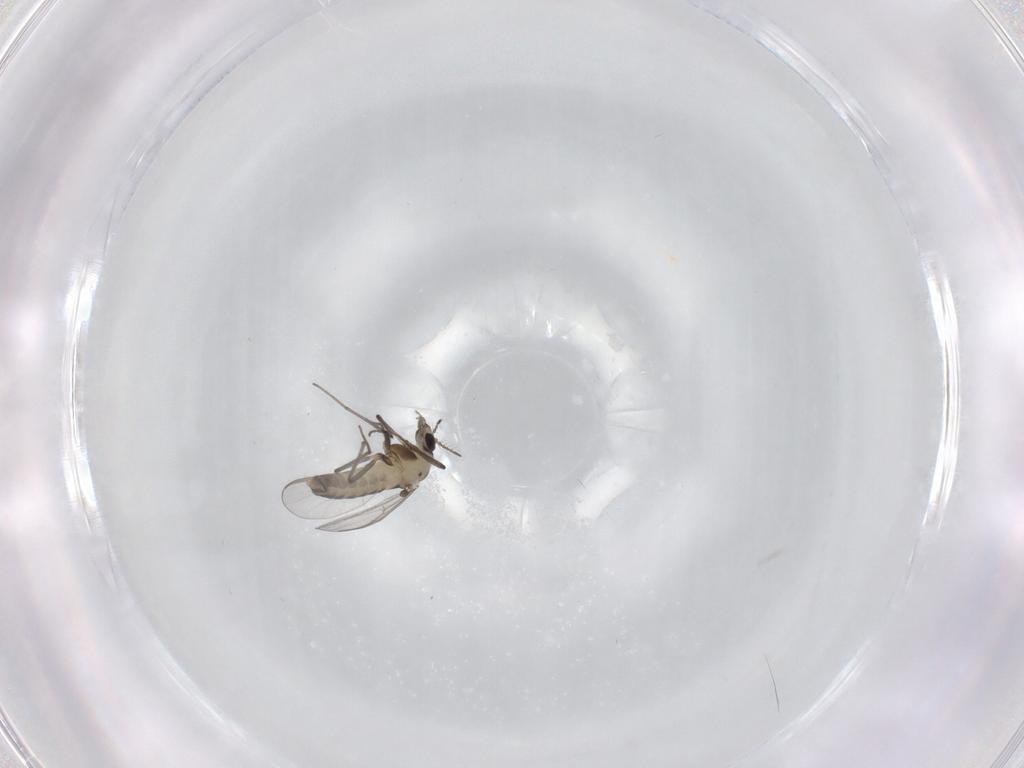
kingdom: Animalia
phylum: Arthropoda
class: Insecta
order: Diptera
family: Chironomidae
